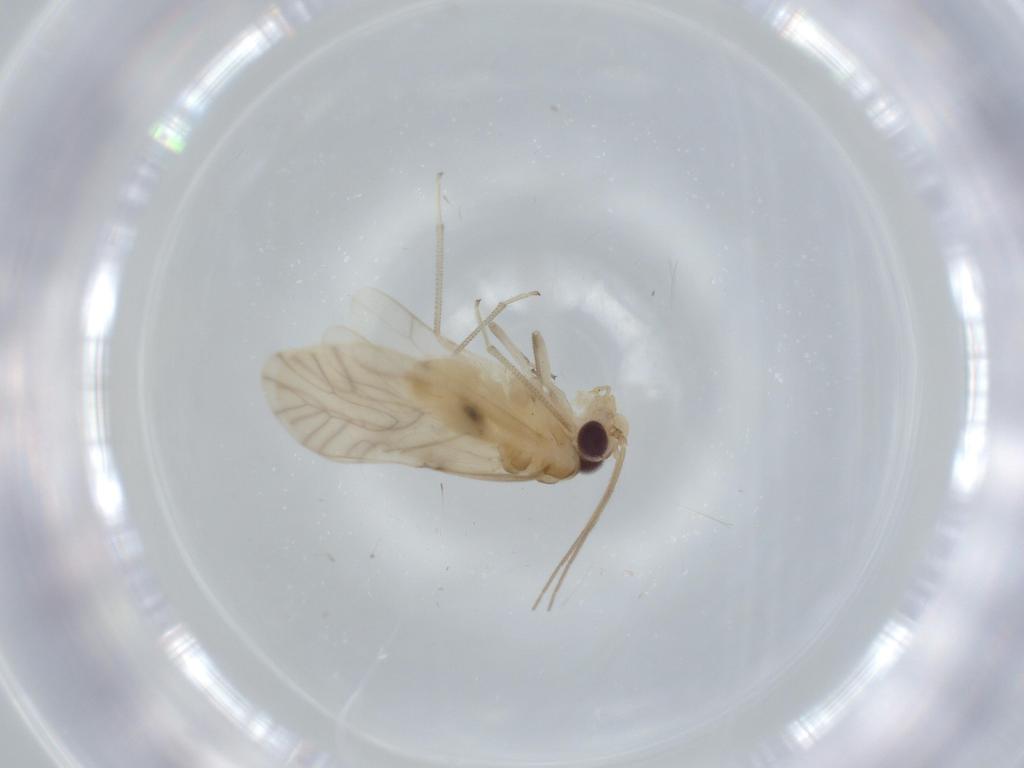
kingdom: Animalia
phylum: Arthropoda
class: Insecta
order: Psocodea
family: Caeciliusidae
